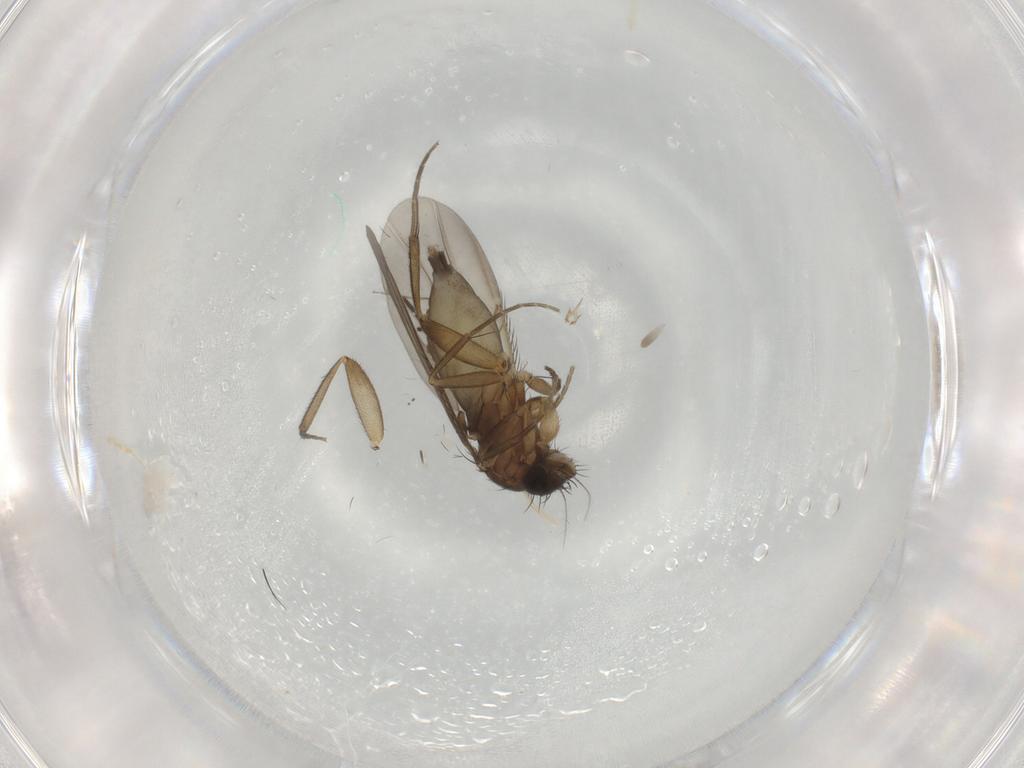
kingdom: Animalia
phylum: Arthropoda
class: Insecta
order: Diptera
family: Phoridae
